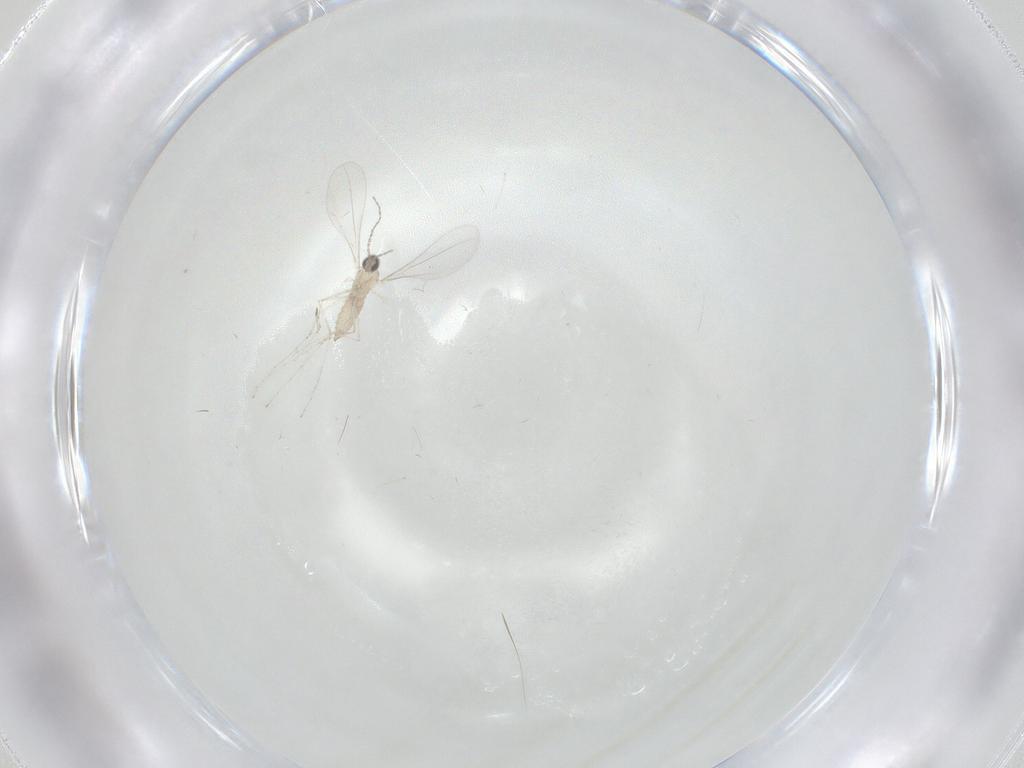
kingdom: Animalia
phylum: Arthropoda
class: Insecta
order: Diptera
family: Cecidomyiidae
